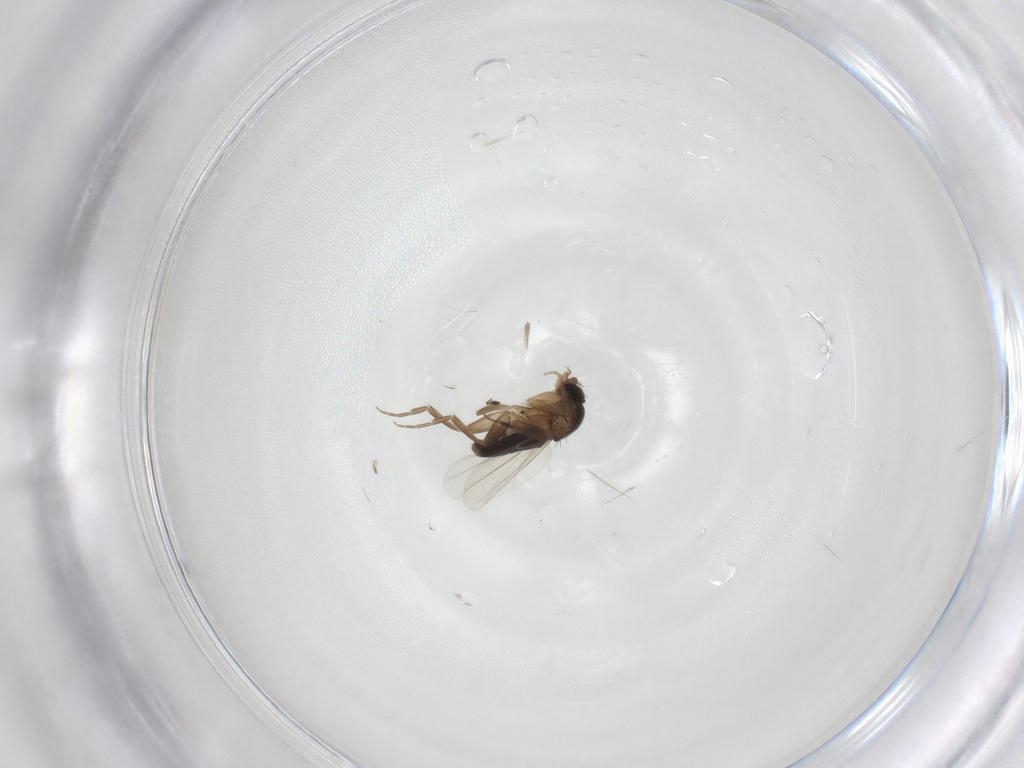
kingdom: Animalia
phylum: Arthropoda
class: Insecta
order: Diptera
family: Phoridae
